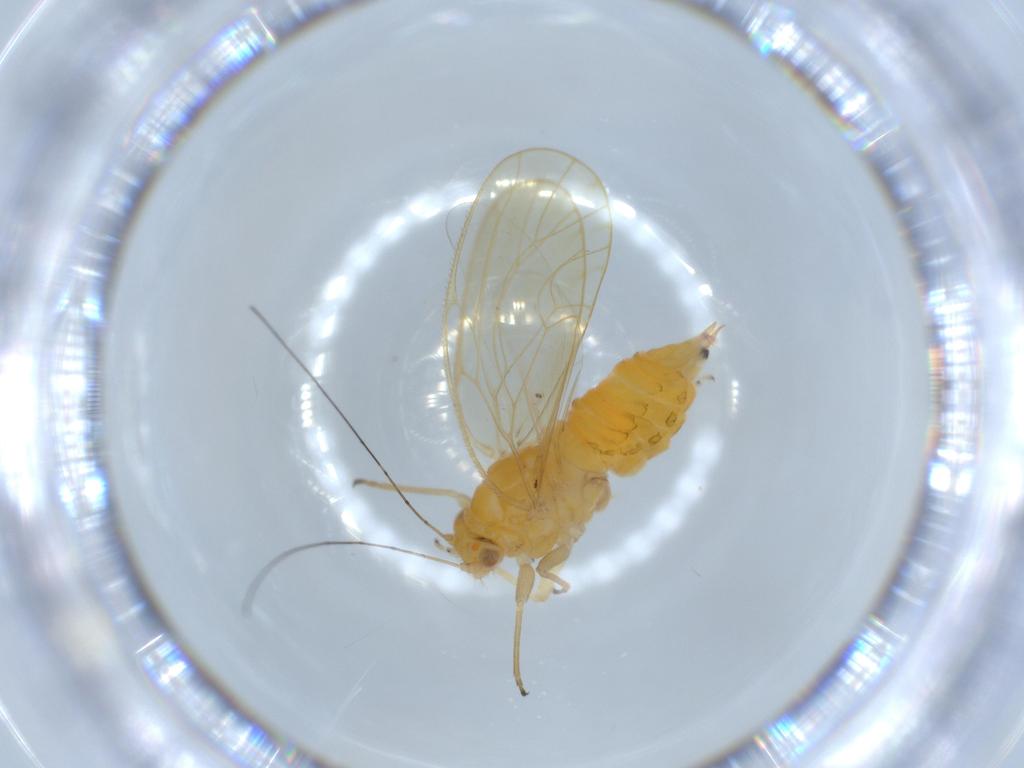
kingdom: Animalia
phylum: Arthropoda
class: Insecta
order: Hemiptera
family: Psyllidae
